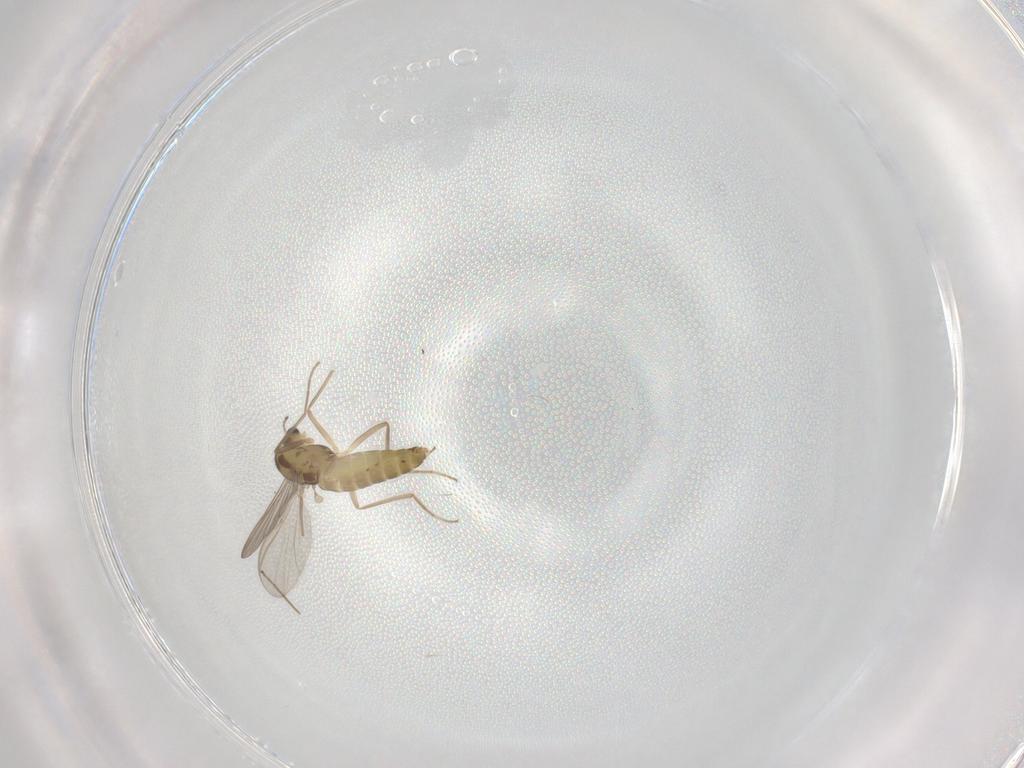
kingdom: Animalia
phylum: Arthropoda
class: Insecta
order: Diptera
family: Chironomidae
